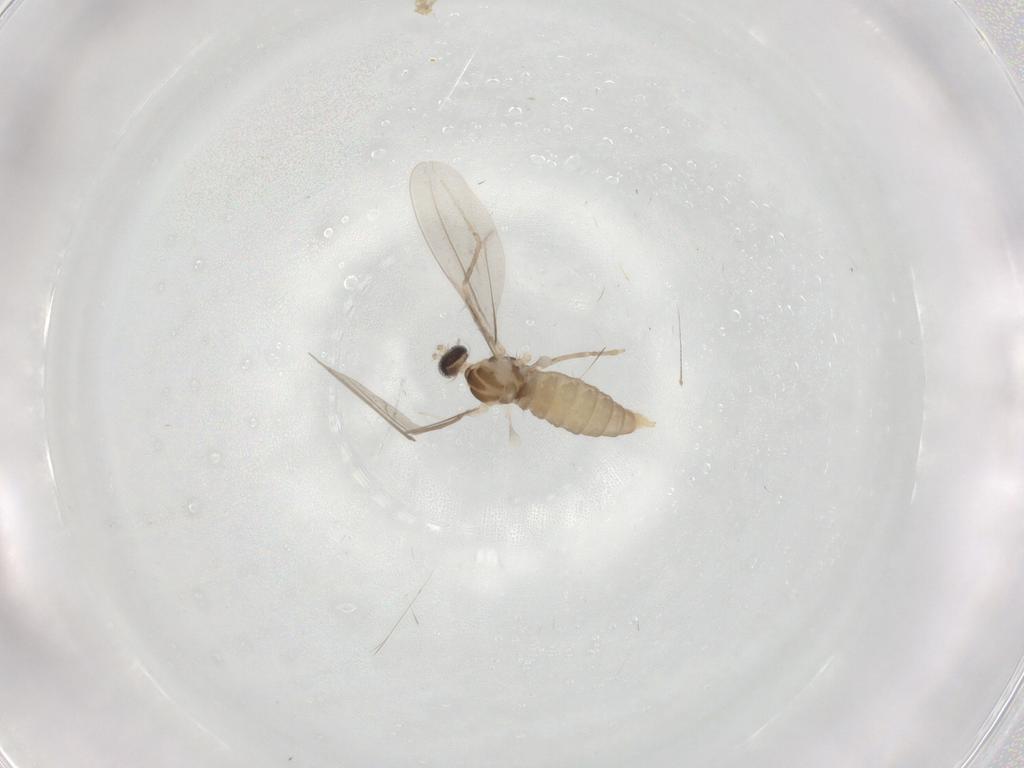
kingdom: Animalia
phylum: Arthropoda
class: Insecta
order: Diptera
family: Cecidomyiidae
